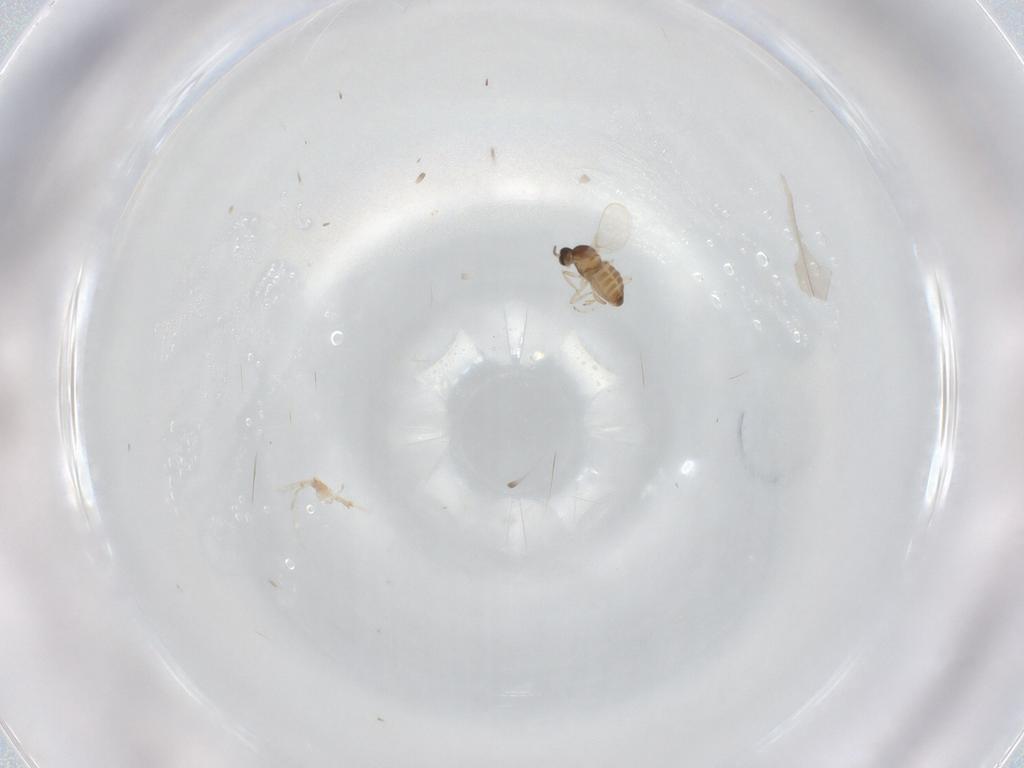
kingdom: Animalia
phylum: Arthropoda
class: Insecta
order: Diptera
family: Cecidomyiidae
